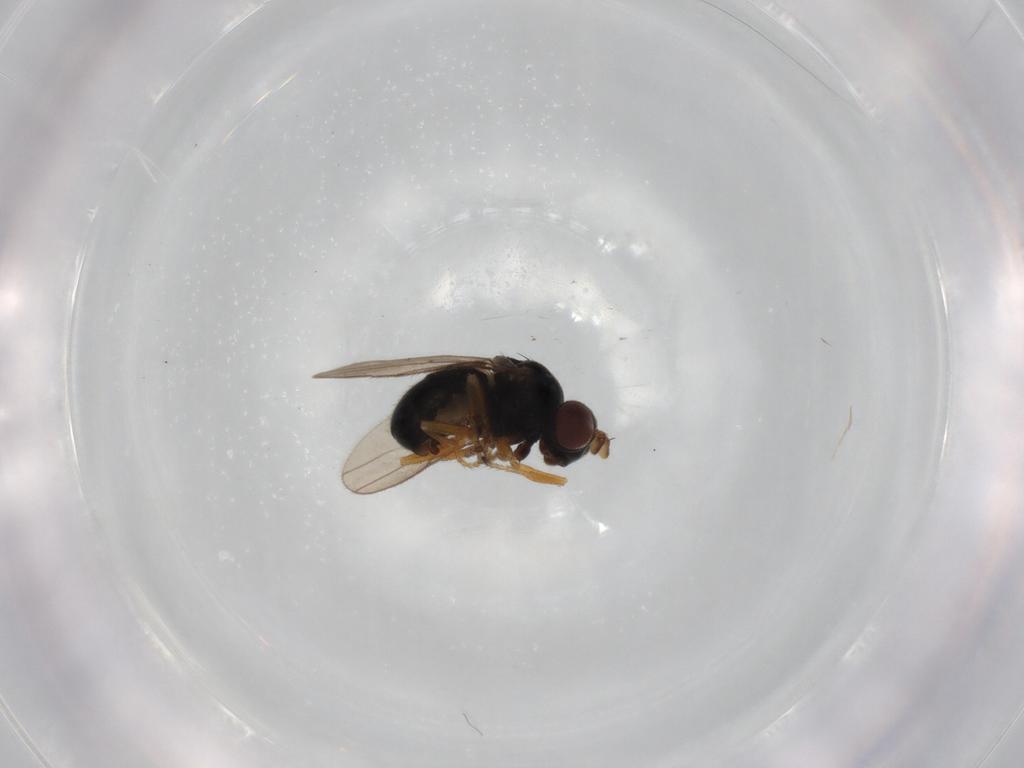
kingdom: Animalia
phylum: Arthropoda
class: Insecta
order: Diptera
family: Ephydridae
